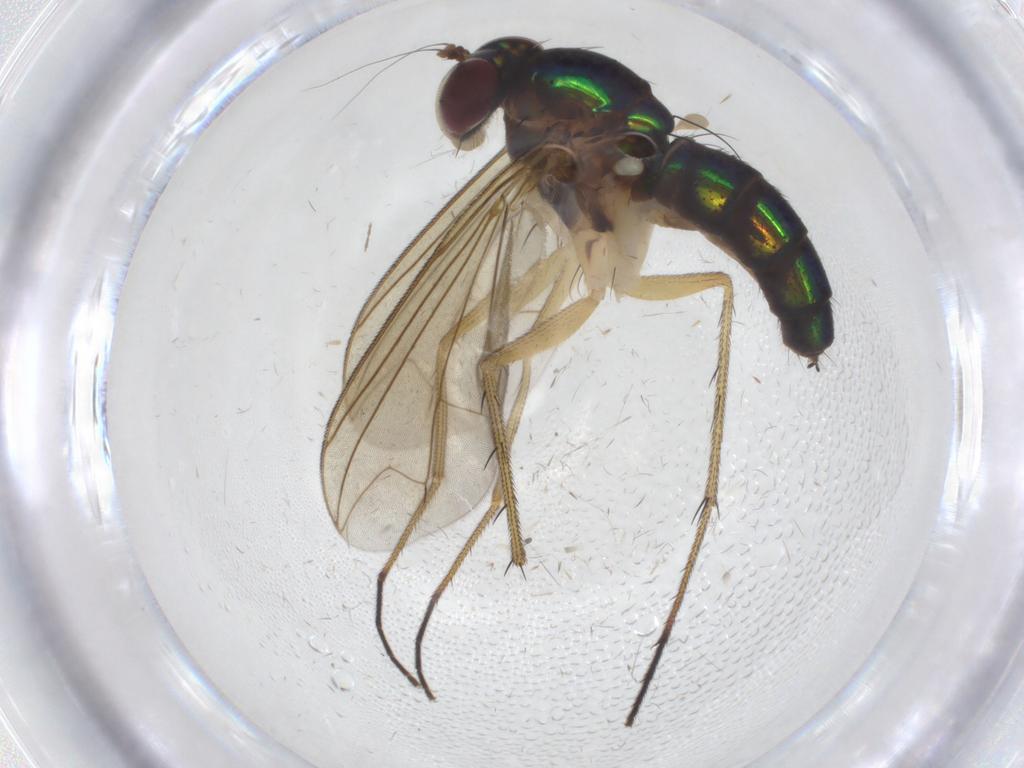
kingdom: Animalia
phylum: Arthropoda
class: Insecta
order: Diptera
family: Dolichopodidae
